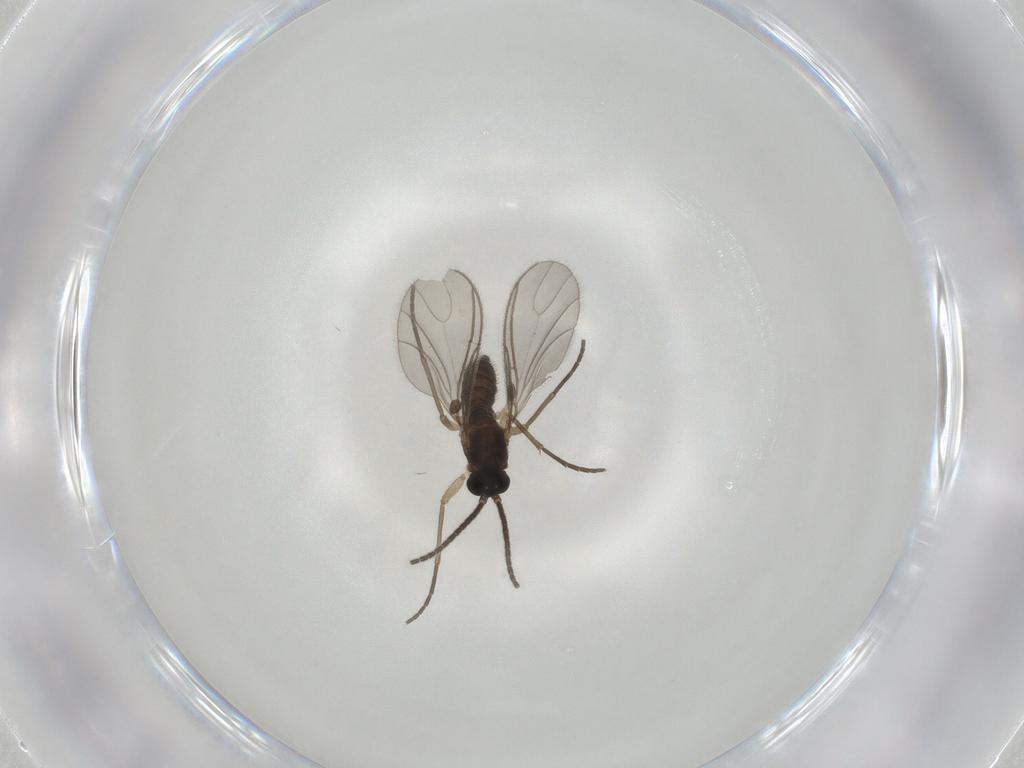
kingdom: Animalia
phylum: Arthropoda
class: Insecta
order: Diptera
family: Sciaridae
